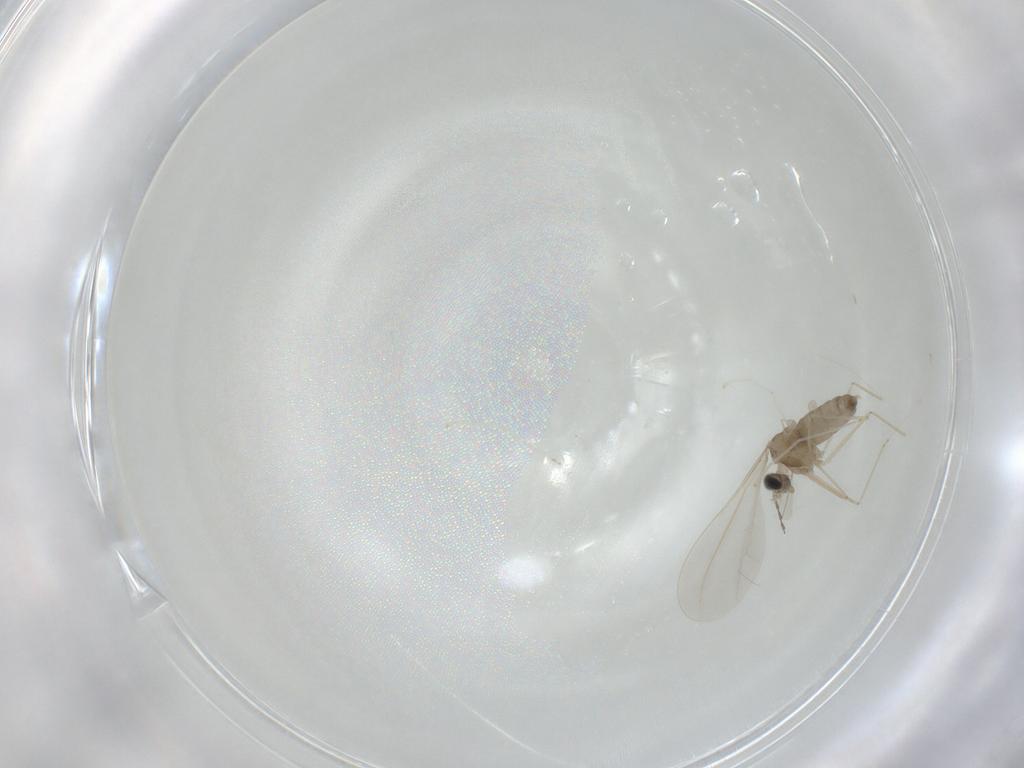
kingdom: Animalia
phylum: Arthropoda
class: Insecta
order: Diptera
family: Cecidomyiidae
